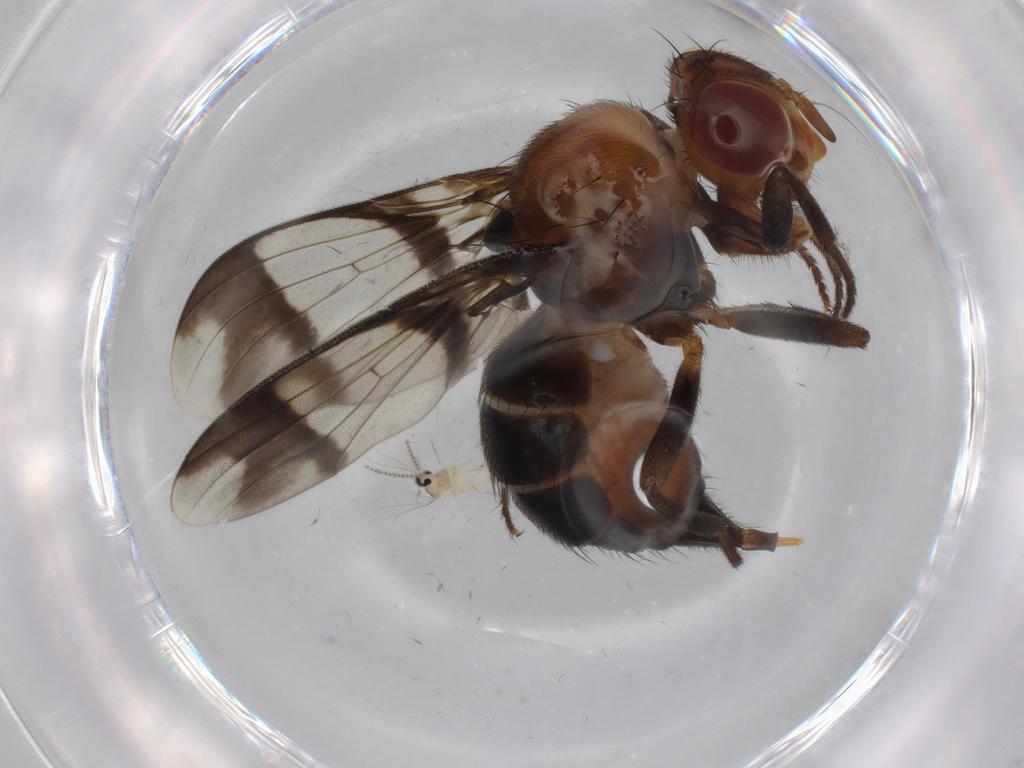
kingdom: Animalia
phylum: Arthropoda
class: Insecta
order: Diptera
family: Richardiidae
